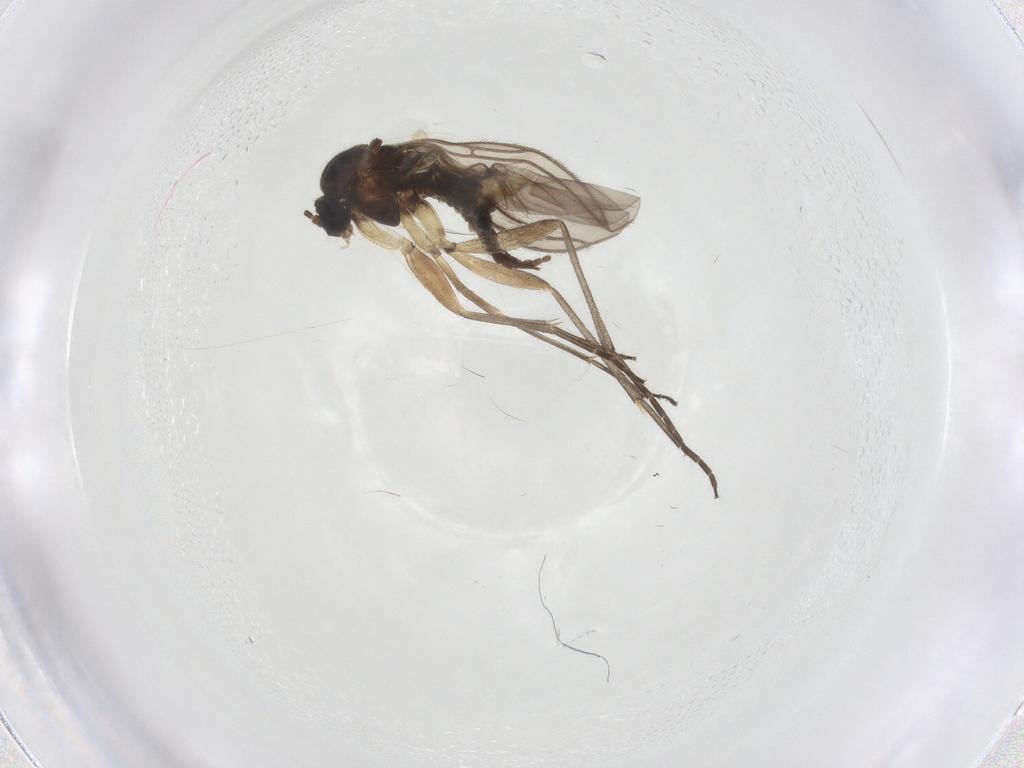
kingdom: Animalia
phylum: Arthropoda
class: Insecta
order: Diptera
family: Sciaridae
